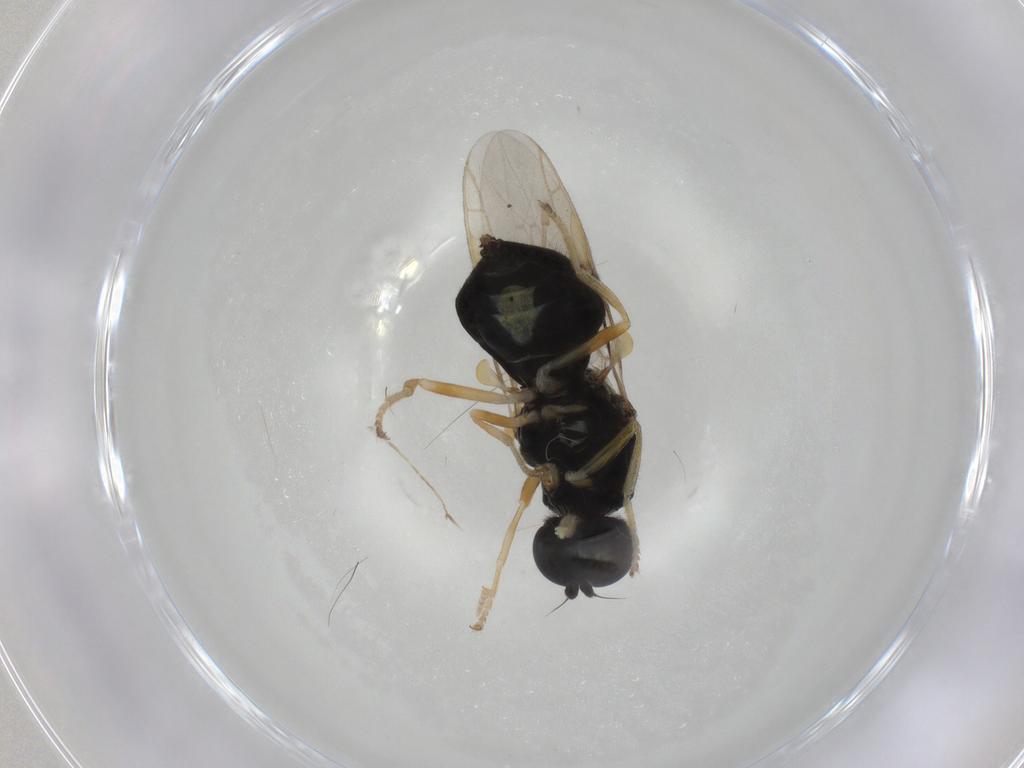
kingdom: Animalia
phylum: Arthropoda
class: Insecta
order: Diptera
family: Stratiomyidae
